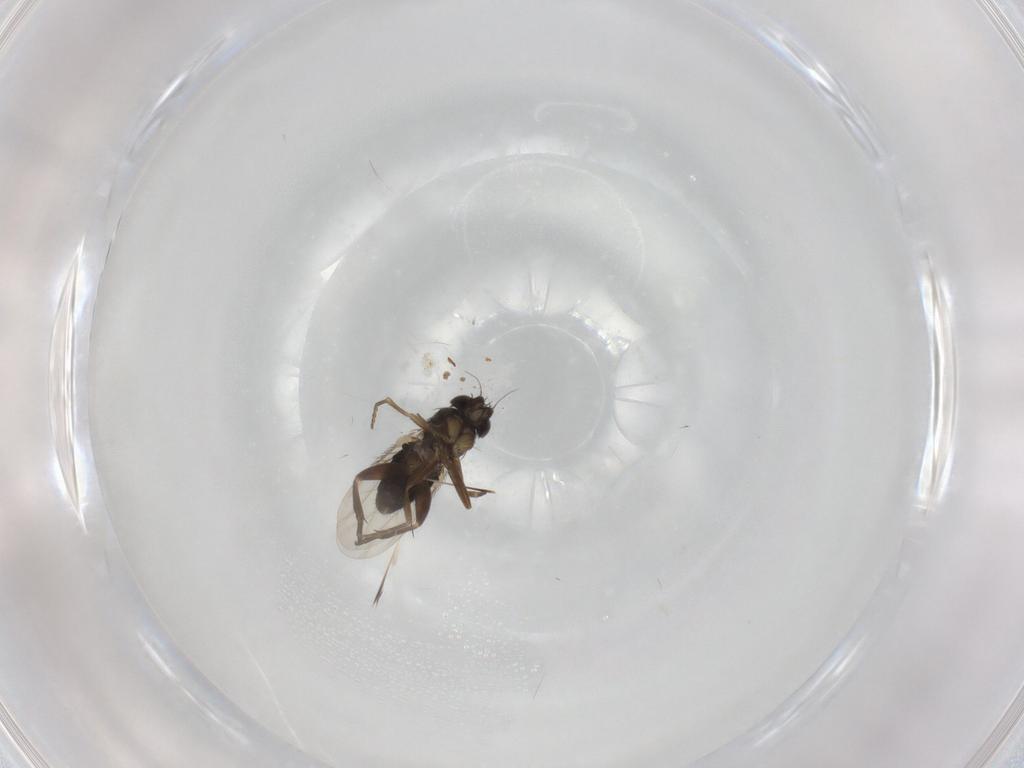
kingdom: Animalia
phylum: Arthropoda
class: Insecta
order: Diptera
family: Phoridae
